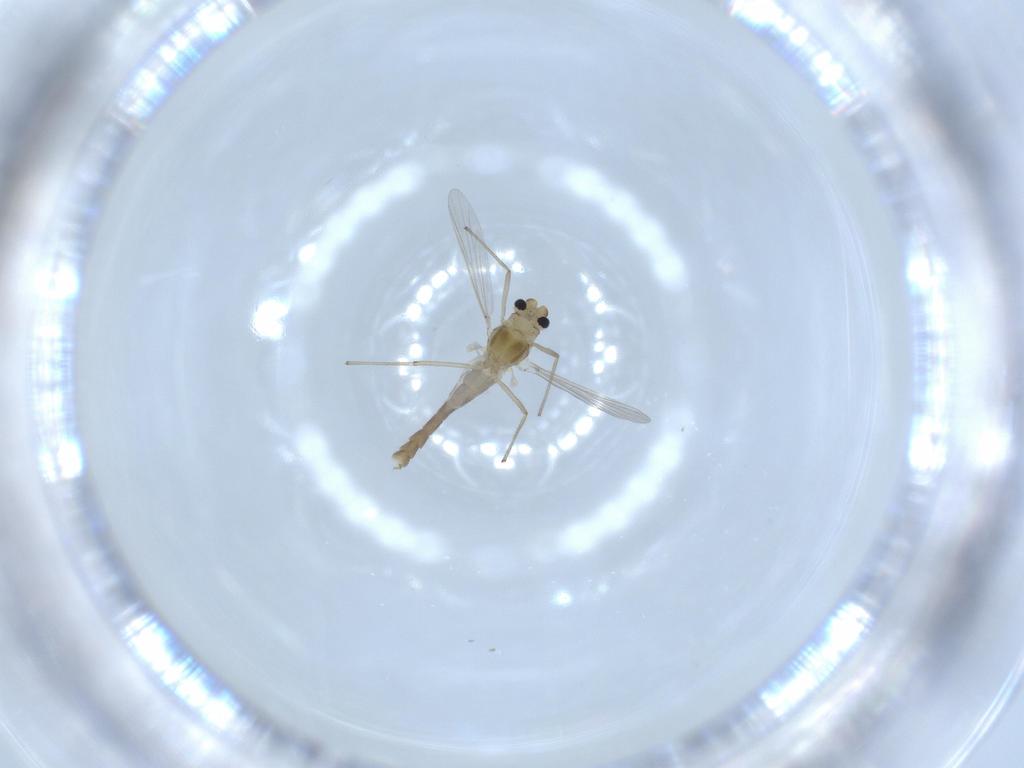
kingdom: Animalia
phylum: Arthropoda
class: Insecta
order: Diptera
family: Chironomidae
